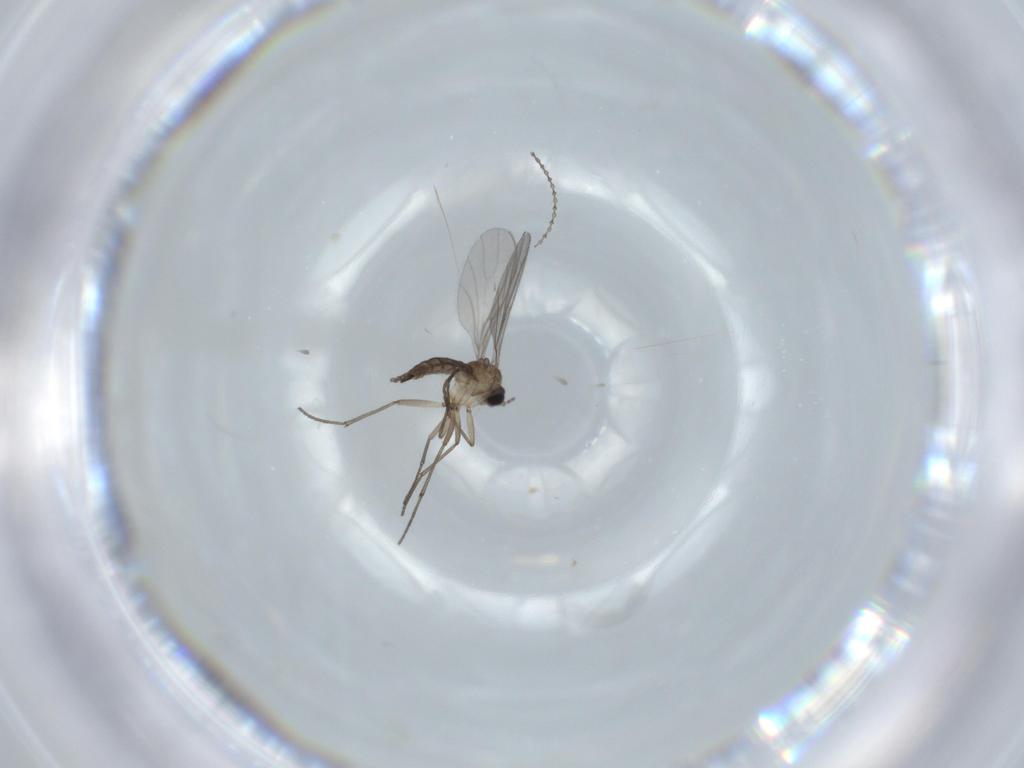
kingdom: Animalia
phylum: Arthropoda
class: Insecta
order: Diptera
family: Sciaridae
